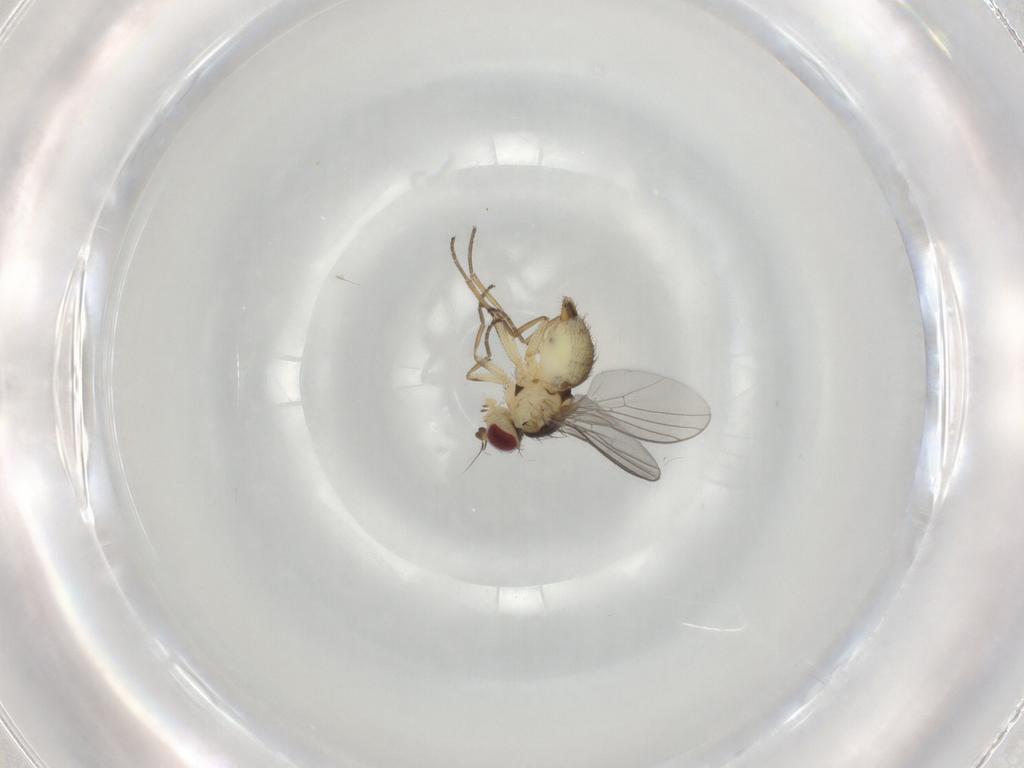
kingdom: Animalia
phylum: Arthropoda
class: Insecta
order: Diptera
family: Agromyzidae
